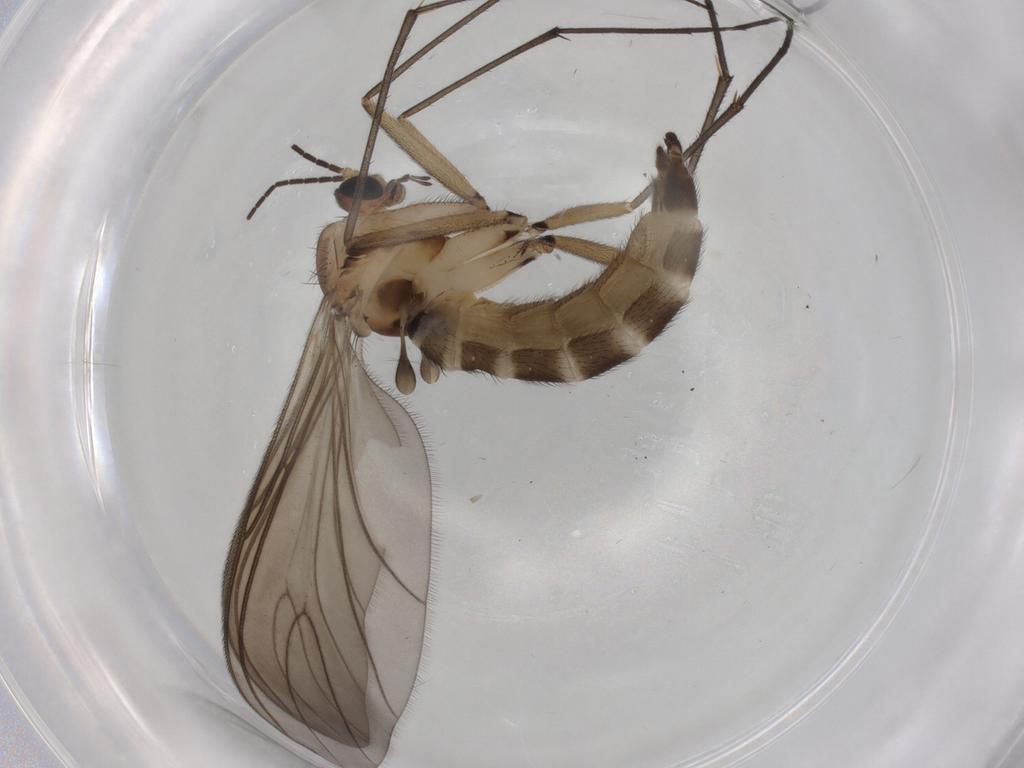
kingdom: Animalia
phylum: Arthropoda
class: Insecta
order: Diptera
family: Sciaridae
